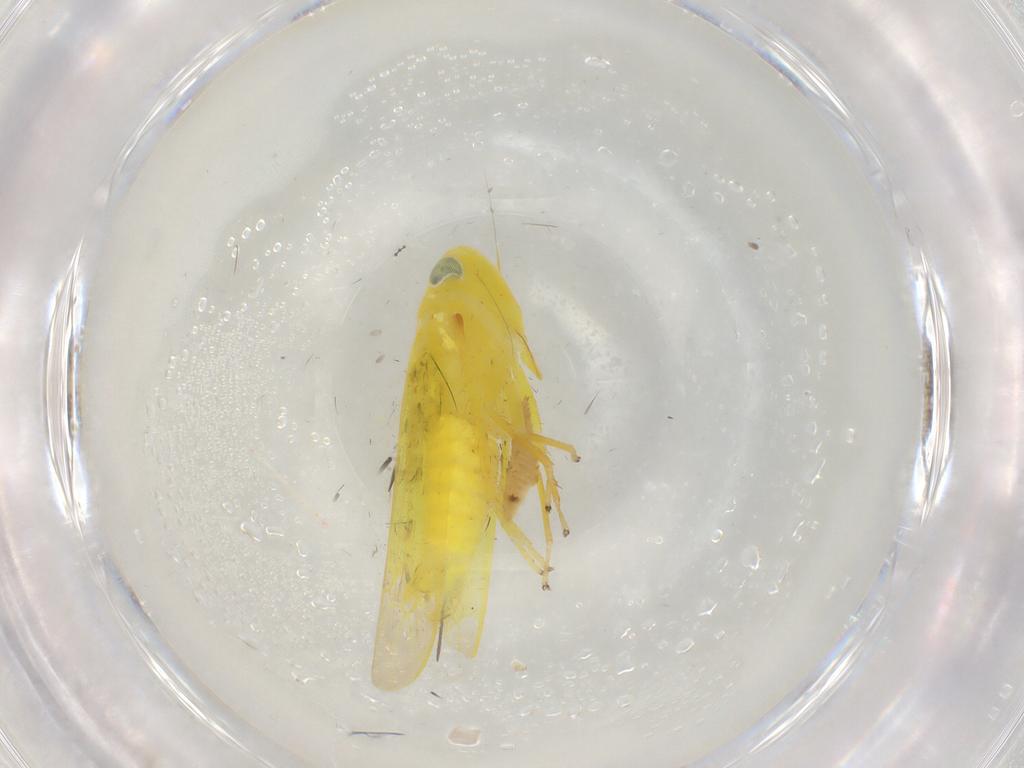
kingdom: Animalia
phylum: Arthropoda
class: Insecta
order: Hemiptera
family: Cicadellidae
